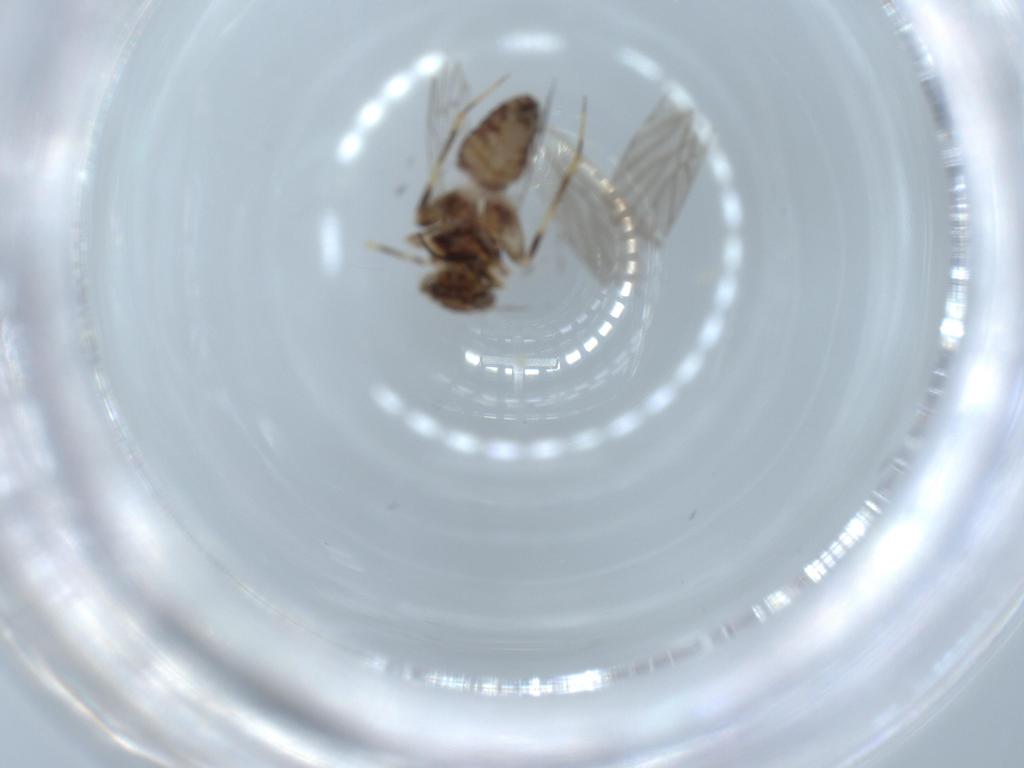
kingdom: Animalia
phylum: Arthropoda
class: Insecta
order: Psocodea
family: Lepidopsocidae
